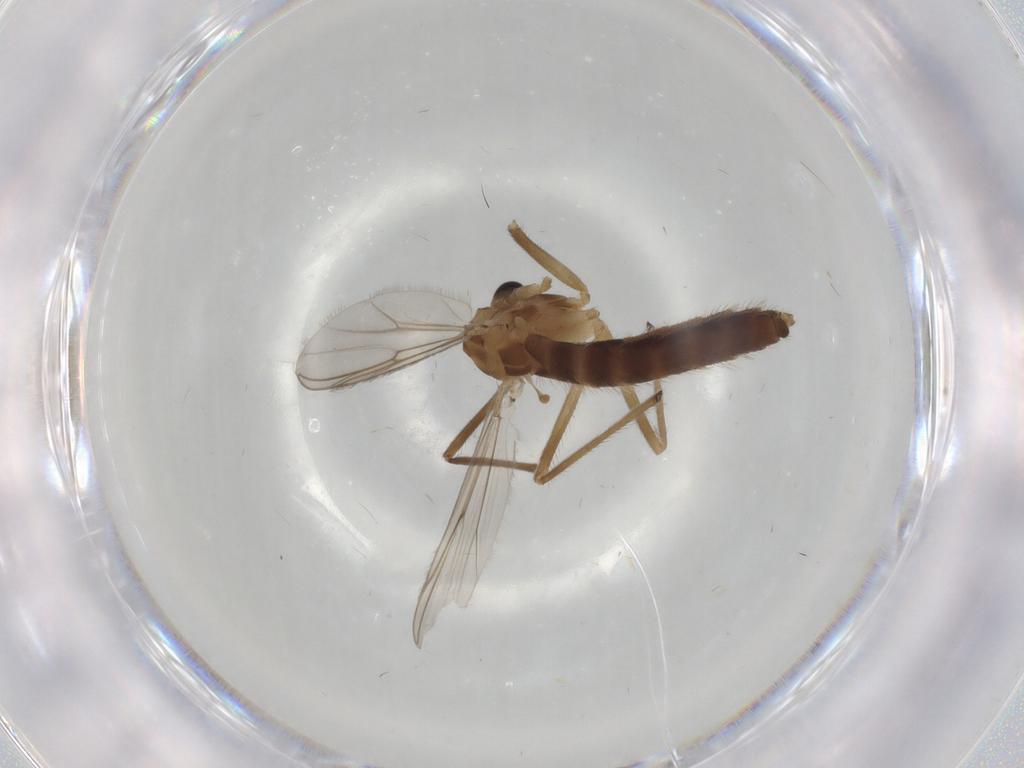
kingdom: Animalia
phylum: Arthropoda
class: Insecta
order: Diptera
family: Chironomidae
